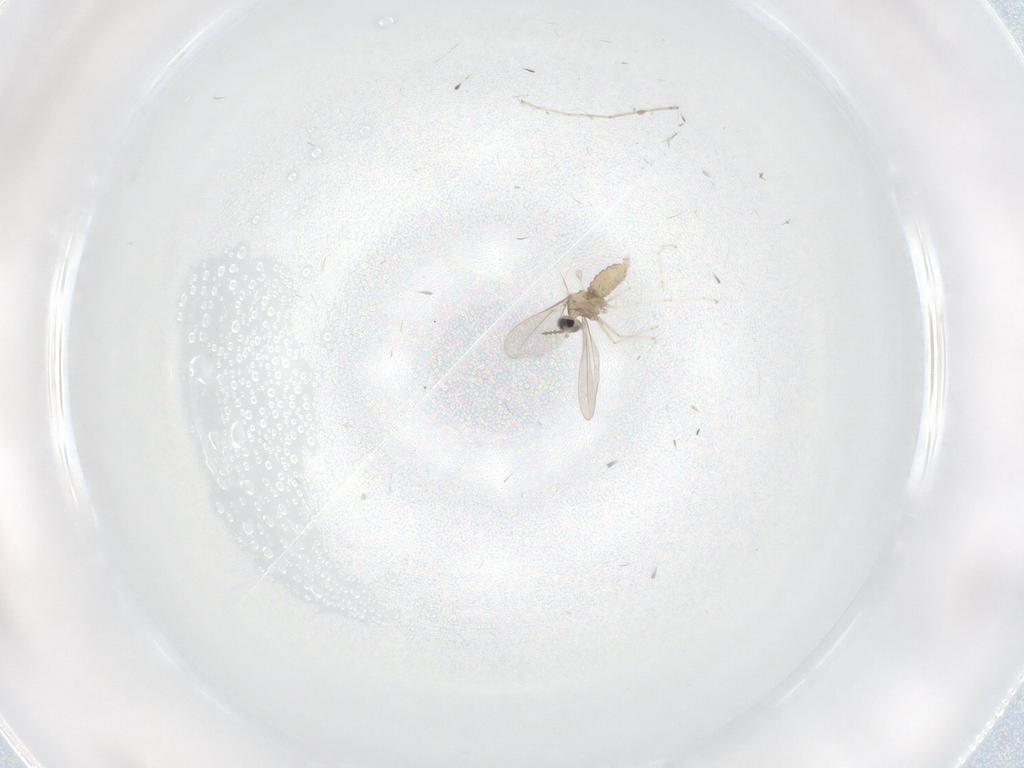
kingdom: Animalia
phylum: Arthropoda
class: Insecta
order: Diptera
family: Cecidomyiidae
